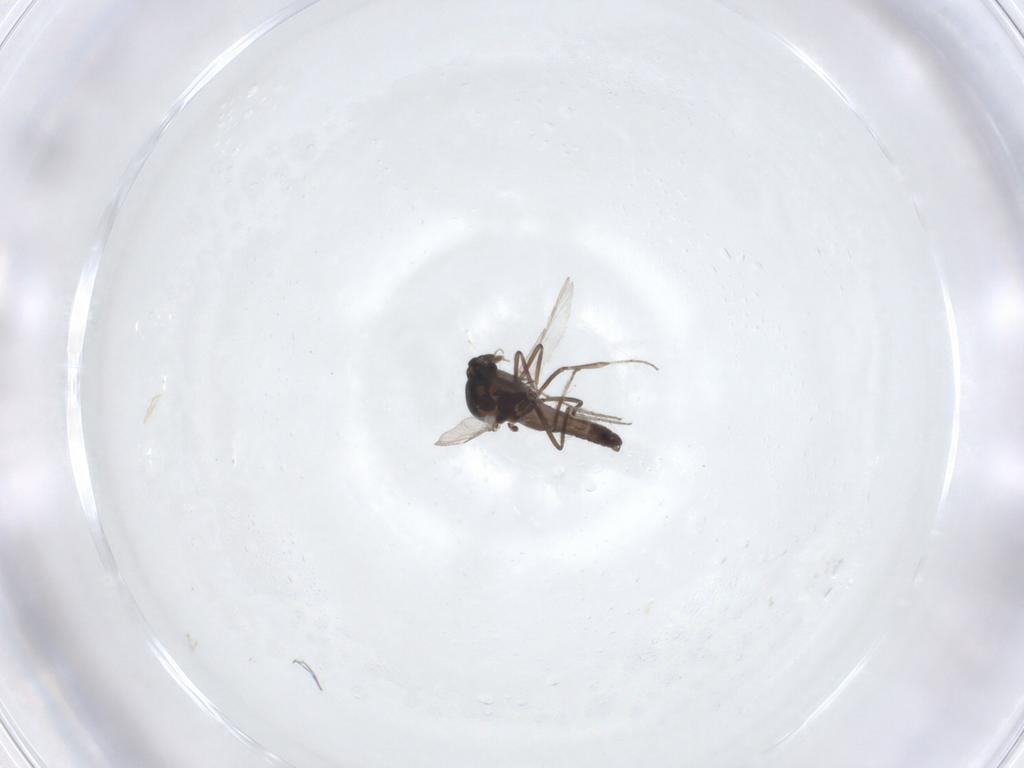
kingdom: Animalia
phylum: Arthropoda
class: Insecta
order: Diptera
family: Ceratopogonidae
